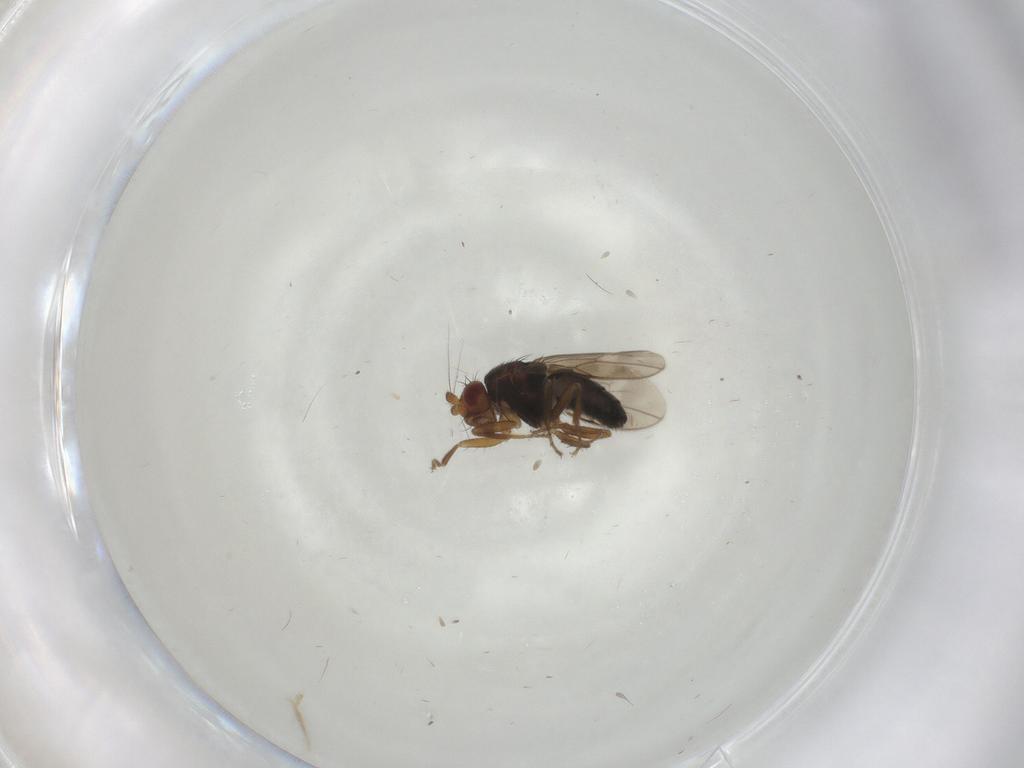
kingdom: Animalia
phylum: Arthropoda
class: Insecta
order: Diptera
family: Sphaeroceridae
